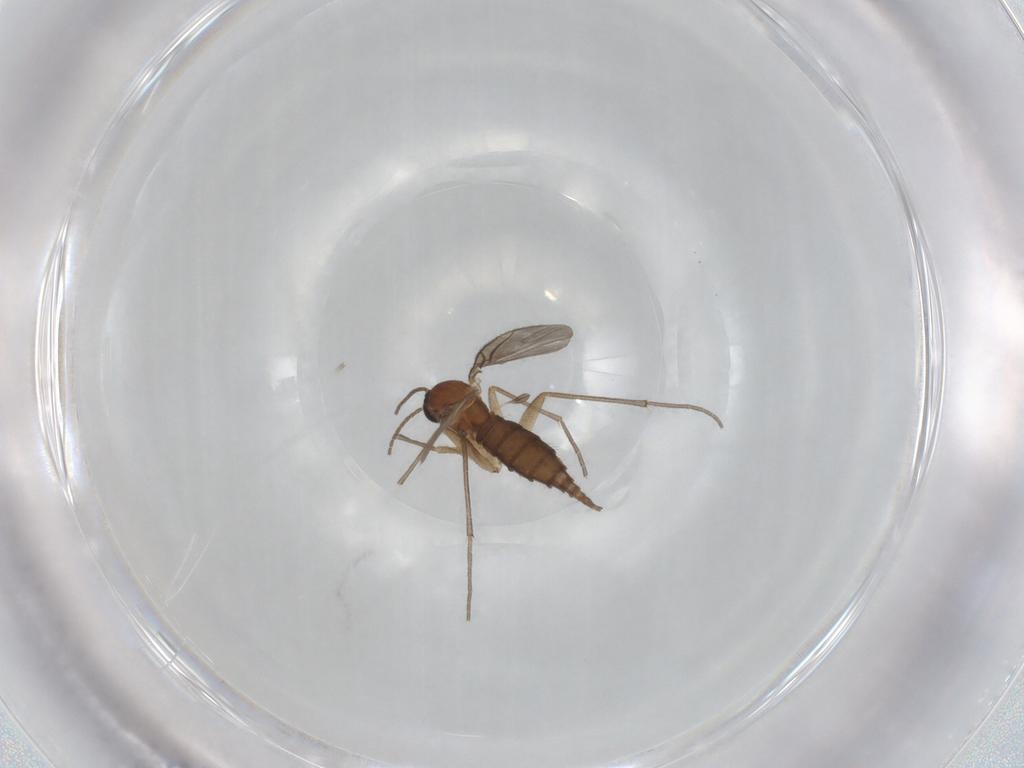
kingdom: Animalia
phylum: Arthropoda
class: Insecta
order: Diptera
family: Sciaridae
